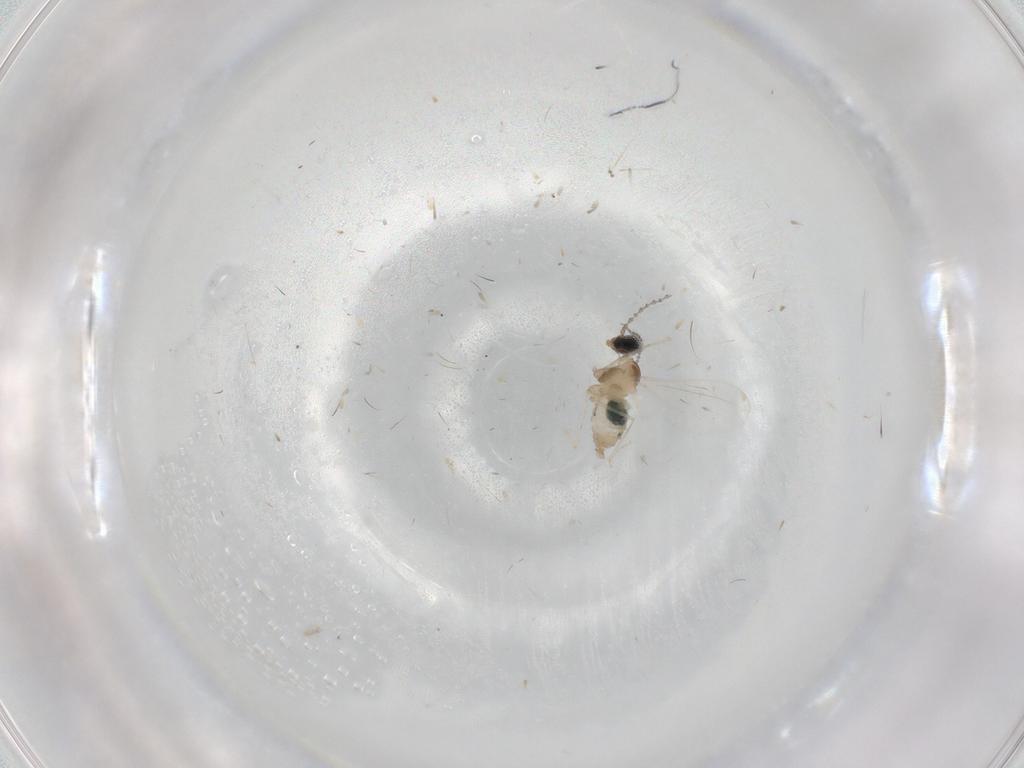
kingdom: Animalia
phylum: Arthropoda
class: Insecta
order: Diptera
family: Cecidomyiidae
